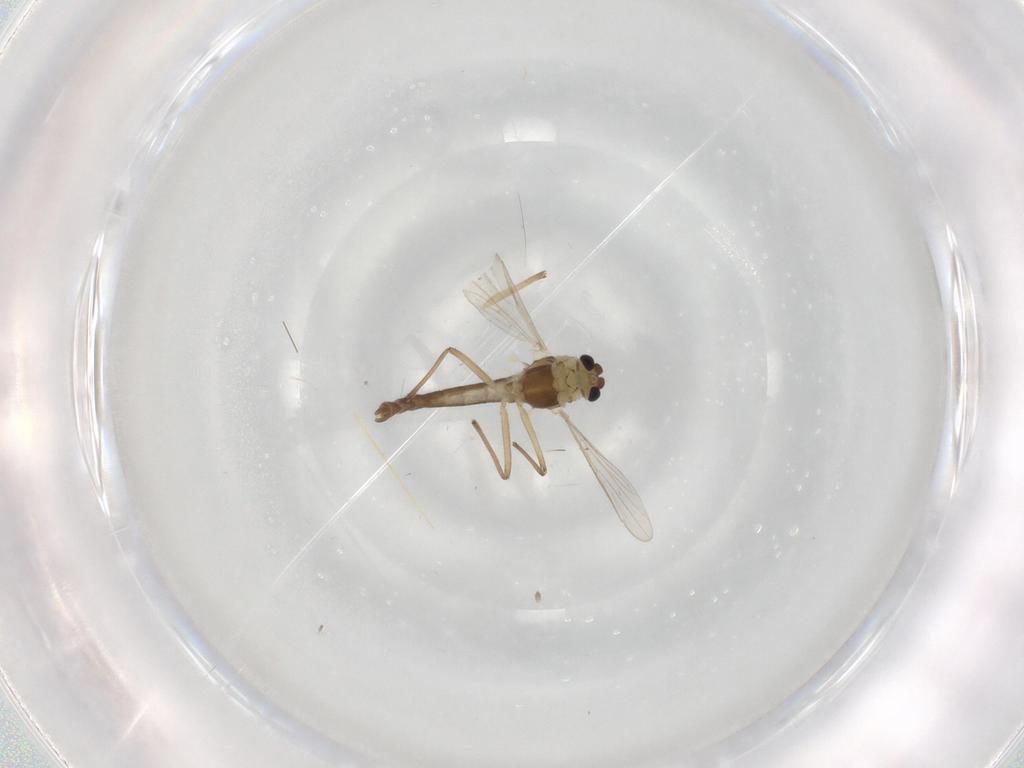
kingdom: Animalia
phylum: Arthropoda
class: Insecta
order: Diptera
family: Chironomidae
